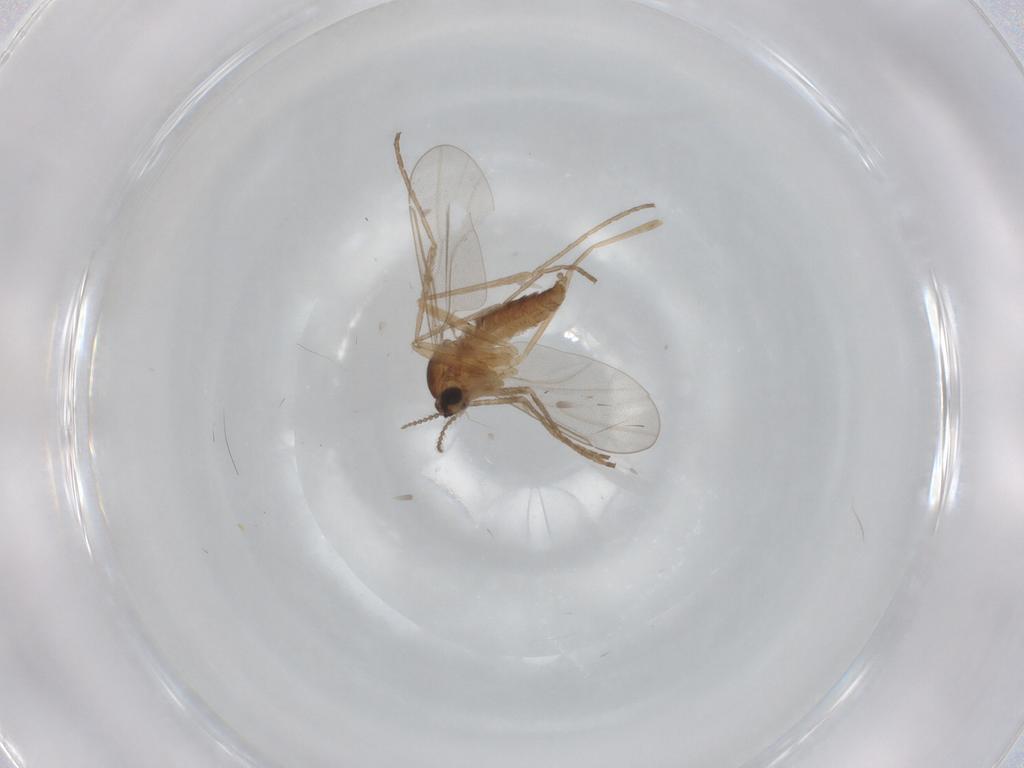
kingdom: Animalia
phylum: Arthropoda
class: Insecta
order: Diptera
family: Cecidomyiidae
